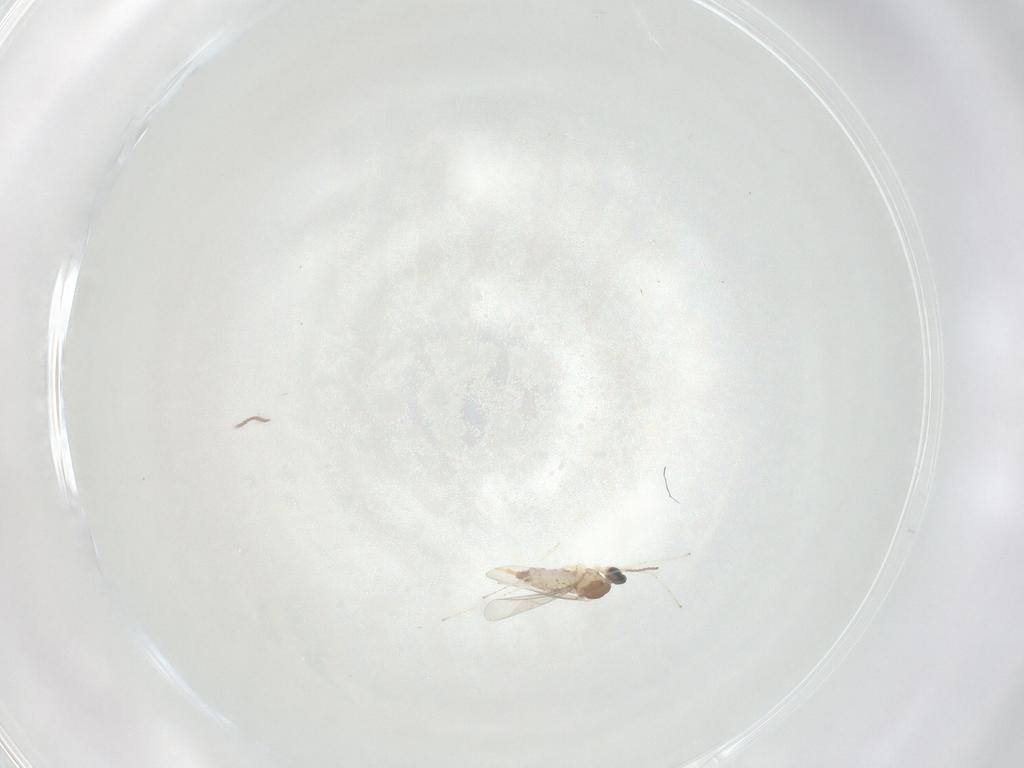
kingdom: Animalia
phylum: Arthropoda
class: Insecta
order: Diptera
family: Cecidomyiidae
